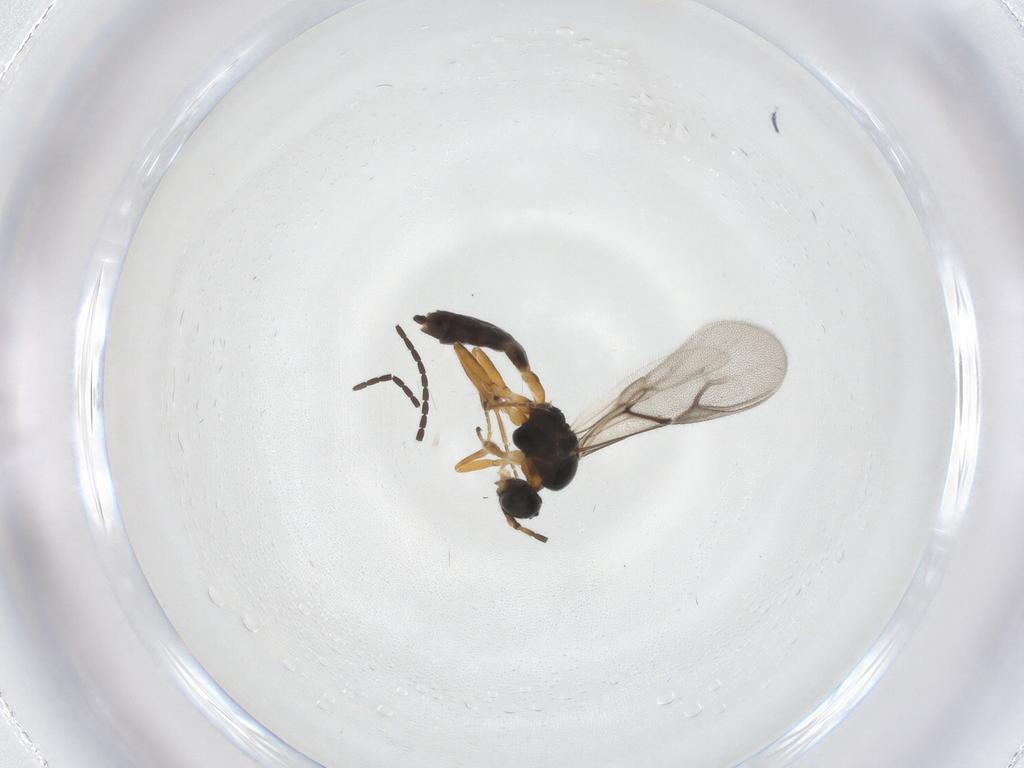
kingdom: Animalia
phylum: Arthropoda
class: Insecta
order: Hymenoptera
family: Braconidae
